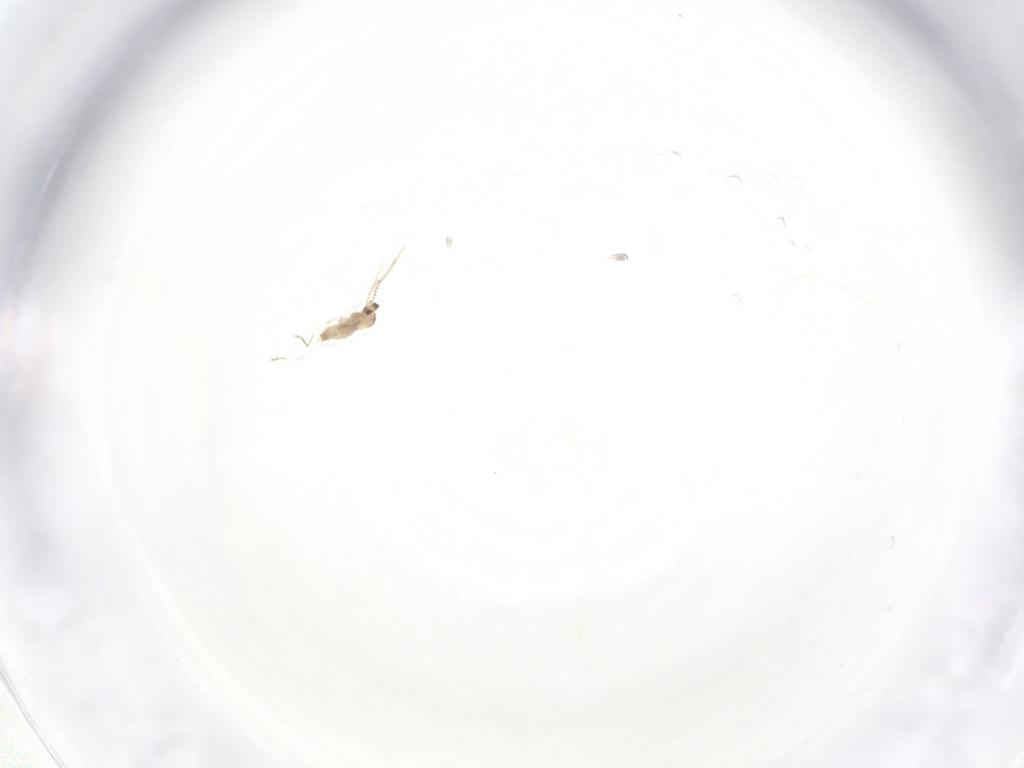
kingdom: Animalia
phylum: Arthropoda
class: Insecta
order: Diptera
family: Cecidomyiidae
